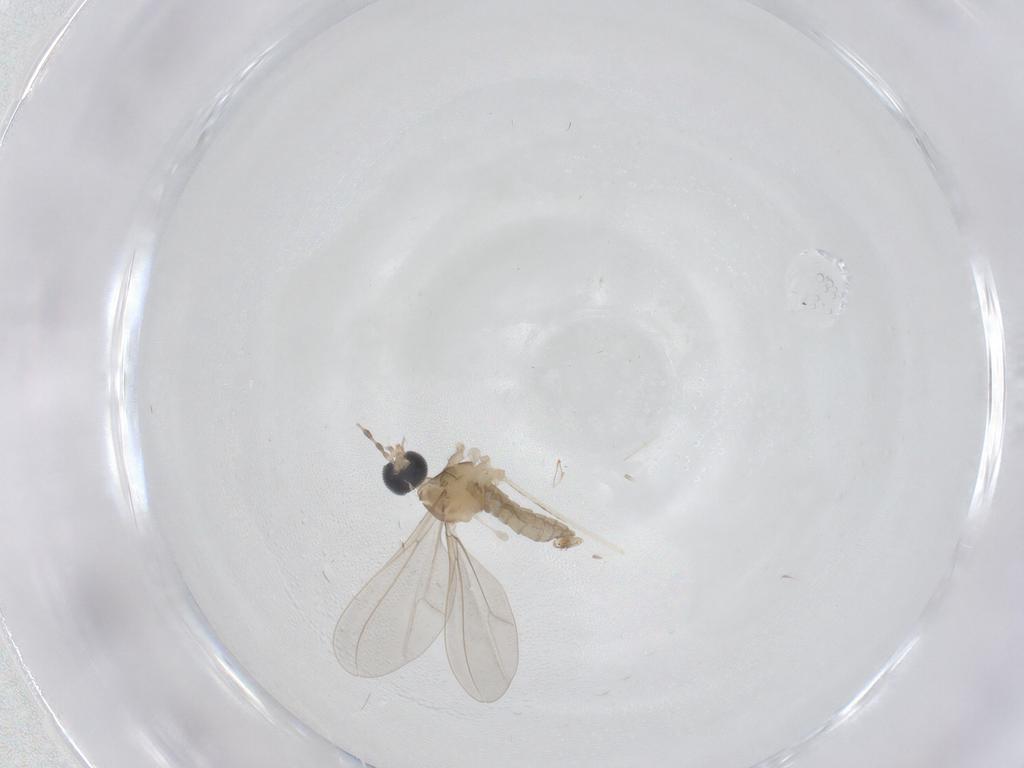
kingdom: Animalia
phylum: Arthropoda
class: Insecta
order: Diptera
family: Cecidomyiidae
